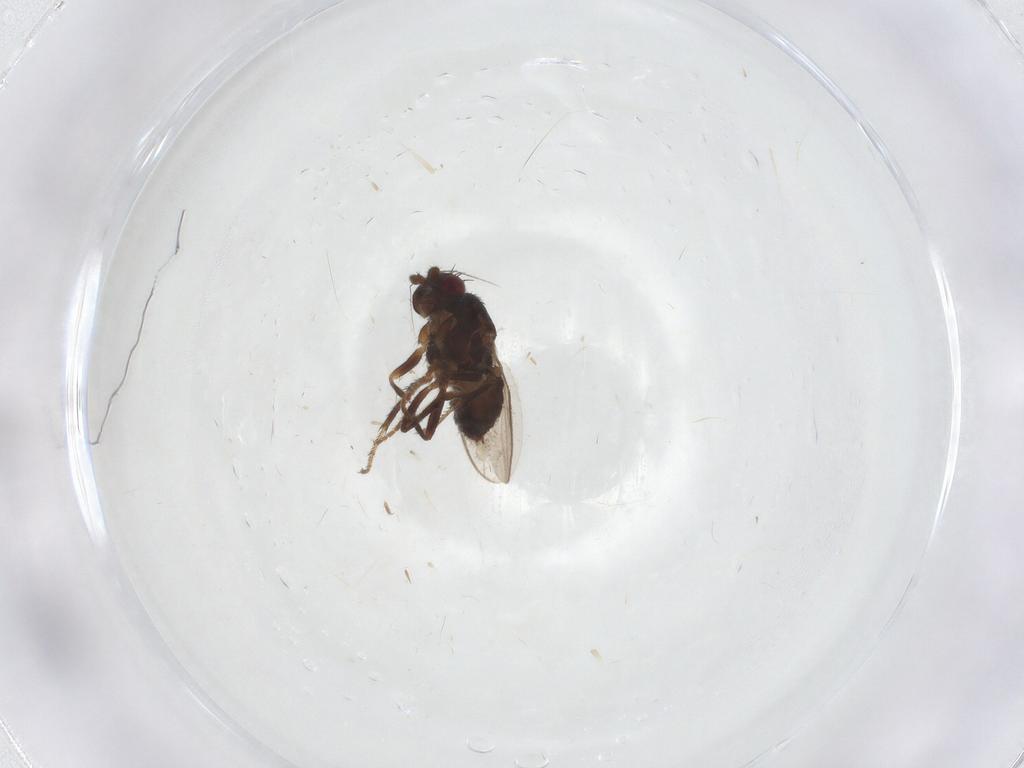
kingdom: Animalia
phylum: Arthropoda
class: Insecta
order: Diptera
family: Sphaeroceridae
